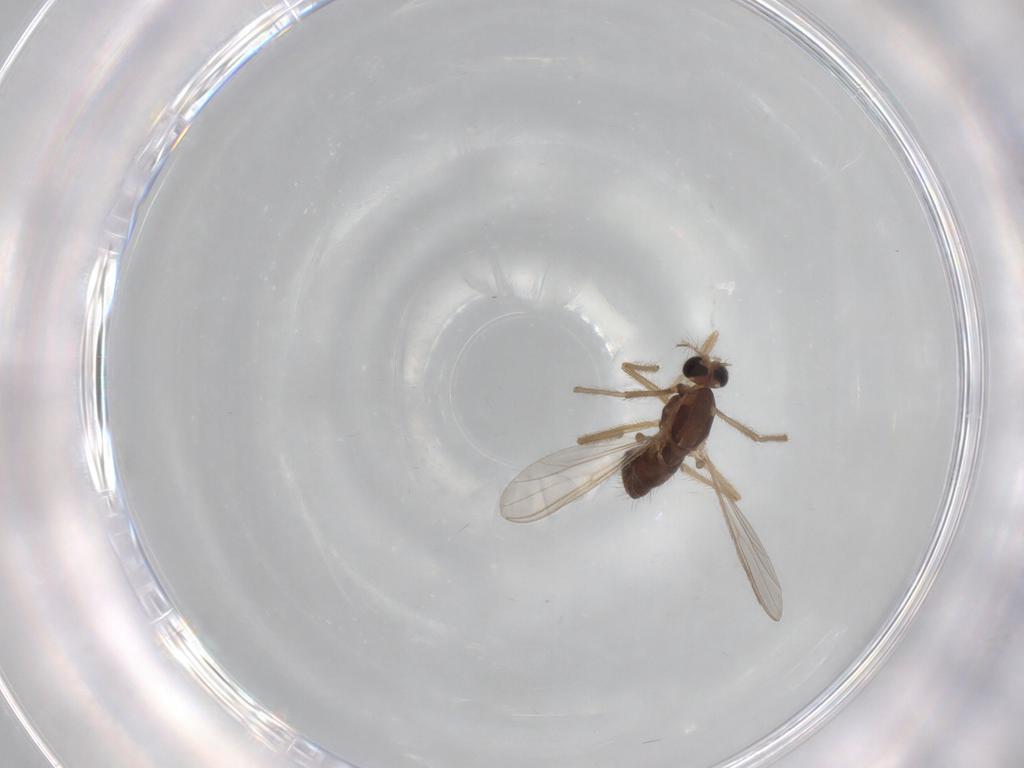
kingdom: Animalia
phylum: Arthropoda
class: Insecta
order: Diptera
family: Chironomidae
